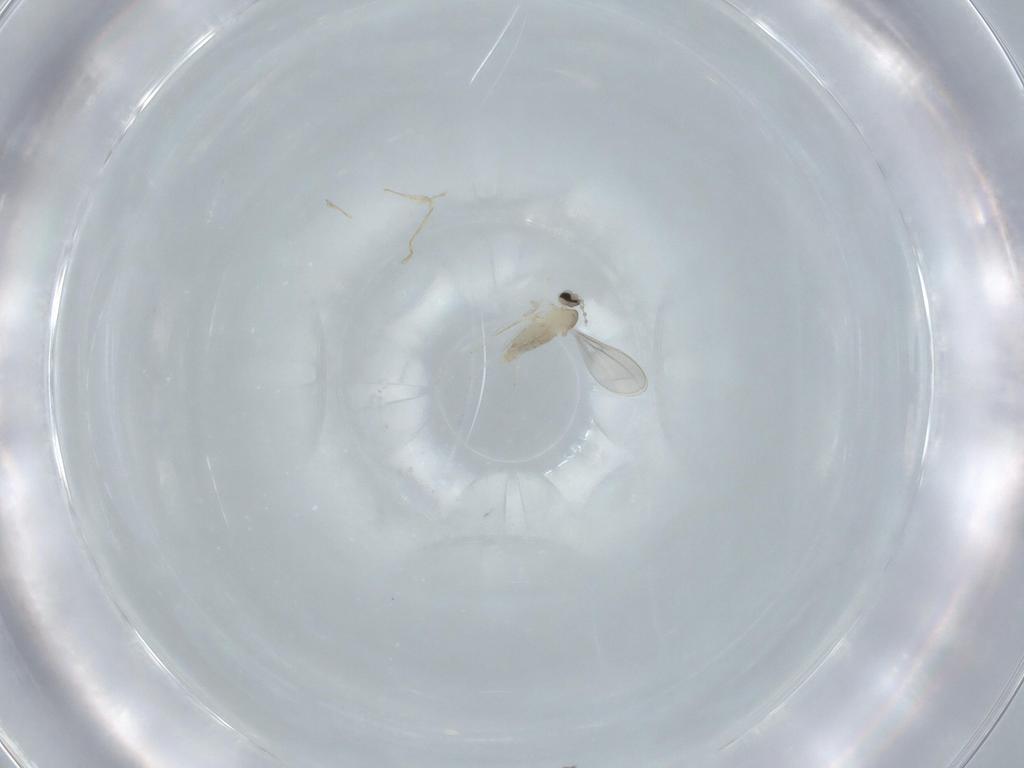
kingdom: Animalia
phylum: Arthropoda
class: Insecta
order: Diptera
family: Cecidomyiidae
